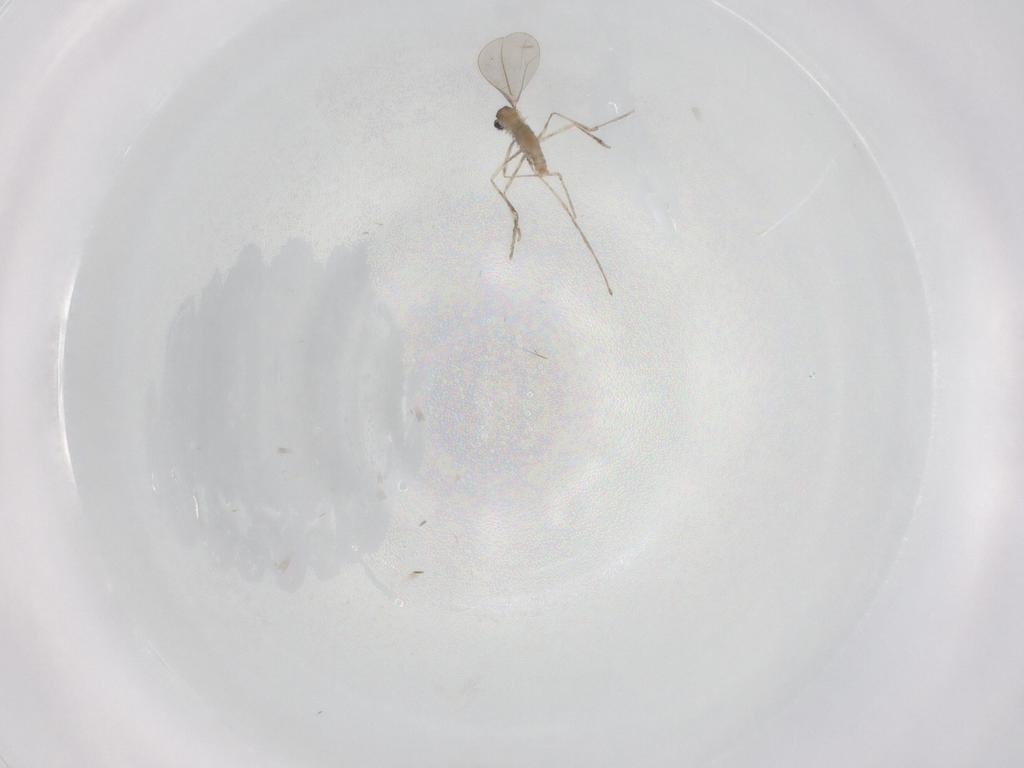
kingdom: Animalia
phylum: Arthropoda
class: Insecta
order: Diptera
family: Cecidomyiidae
